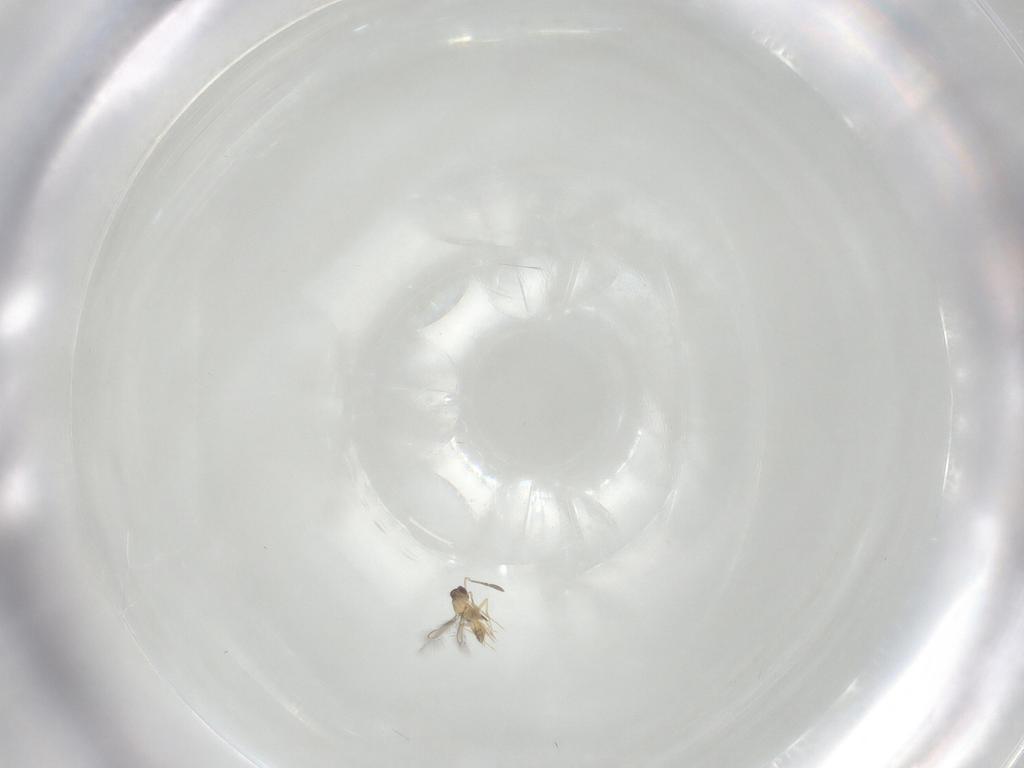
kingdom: Animalia
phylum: Arthropoda
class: Insecta
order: Hymenoptera
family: Mymaridae
